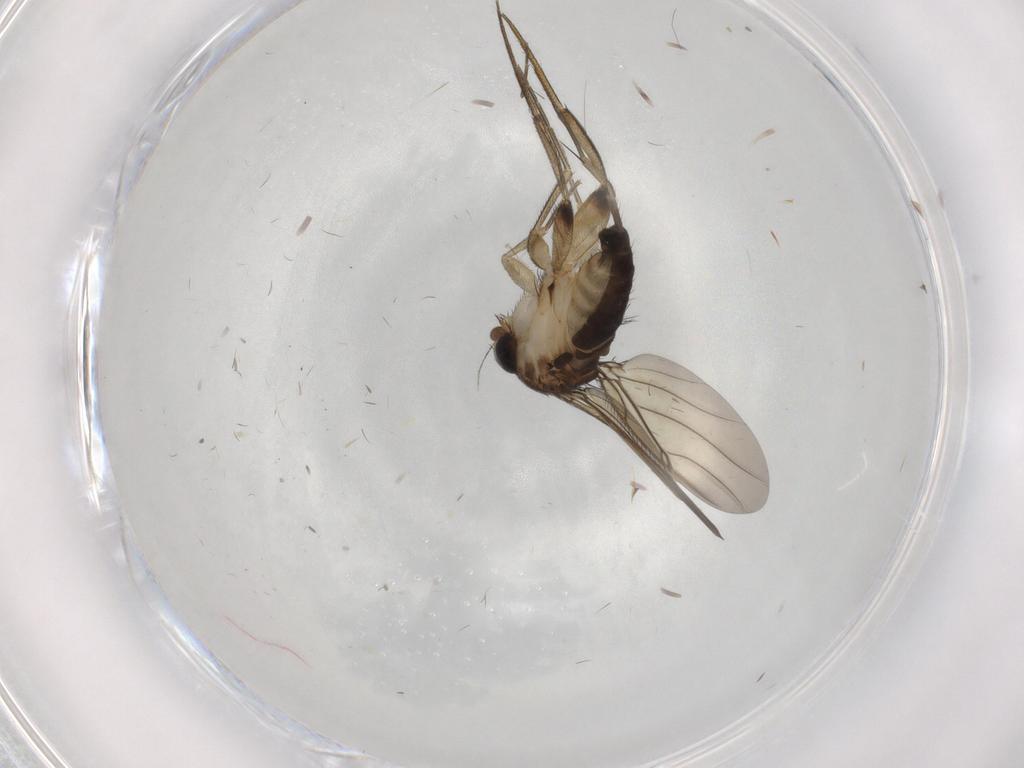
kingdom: Animalia
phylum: Arthropoda
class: Insecta
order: Diptera
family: Phoridae
